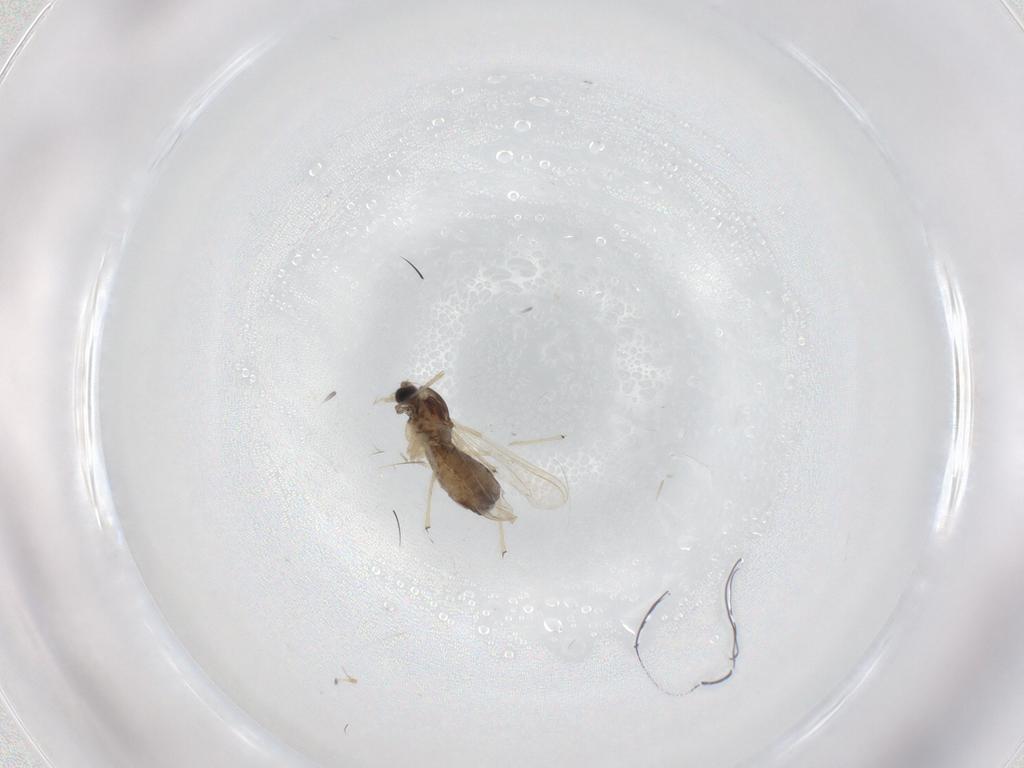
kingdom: Animalia
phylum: Arthropoda
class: Insecta
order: Diptera
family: Chironomidae
